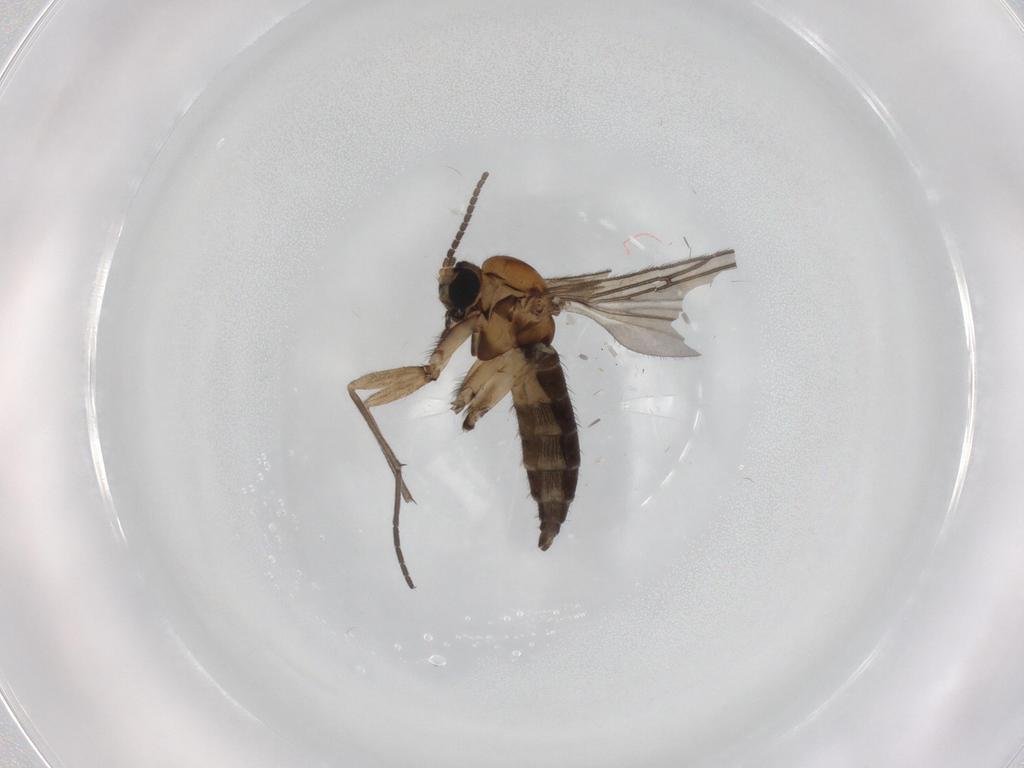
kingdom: Animalia
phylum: Arthropoda
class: Insecta
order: Diptera
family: Sciaridae
